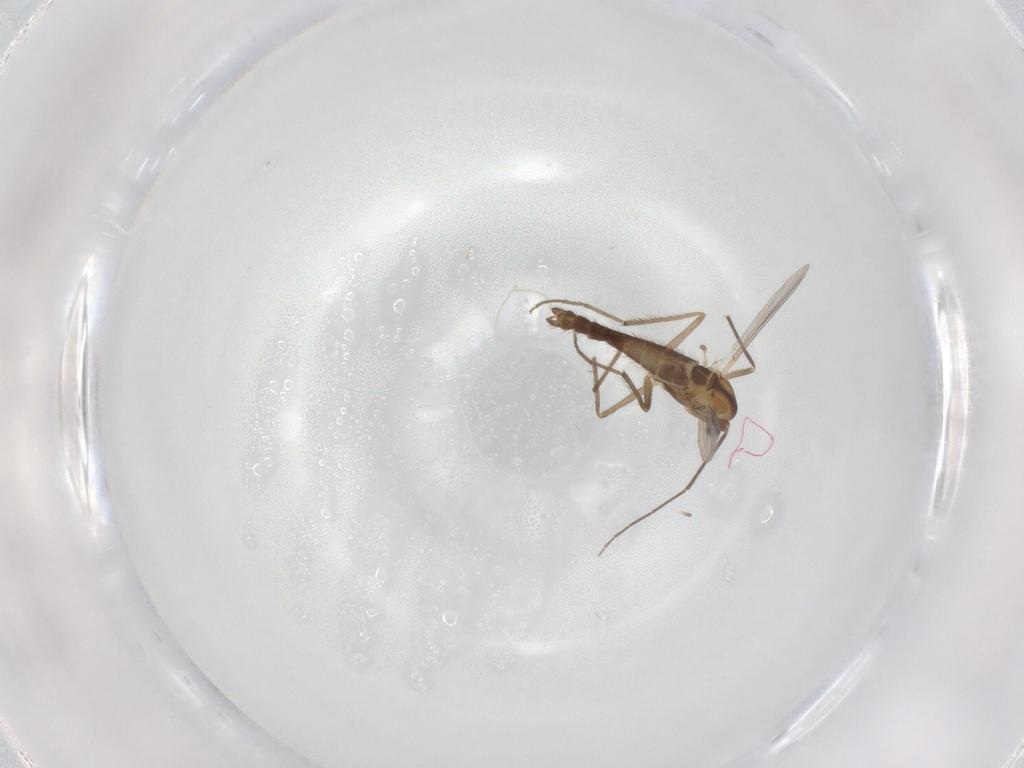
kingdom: Animalia
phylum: Arthropoda
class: Insecta
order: Diptera
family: Chironomidae
